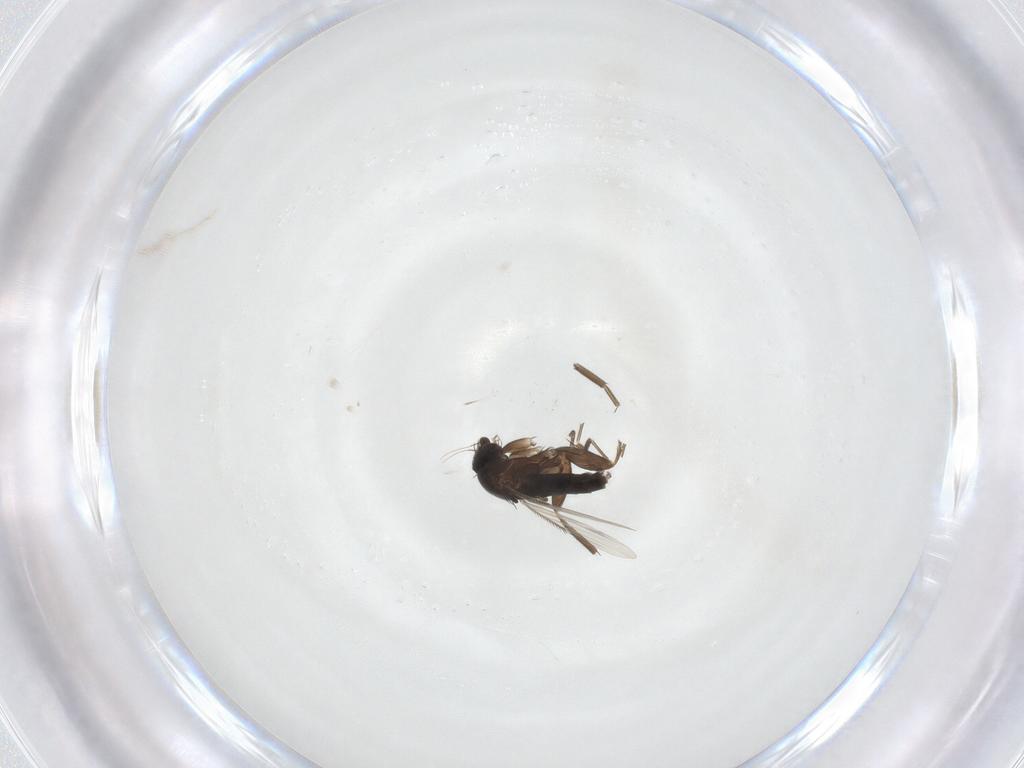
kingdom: Animalia
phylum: Arthropoda
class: Insecta
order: Diptera
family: Phoridae
